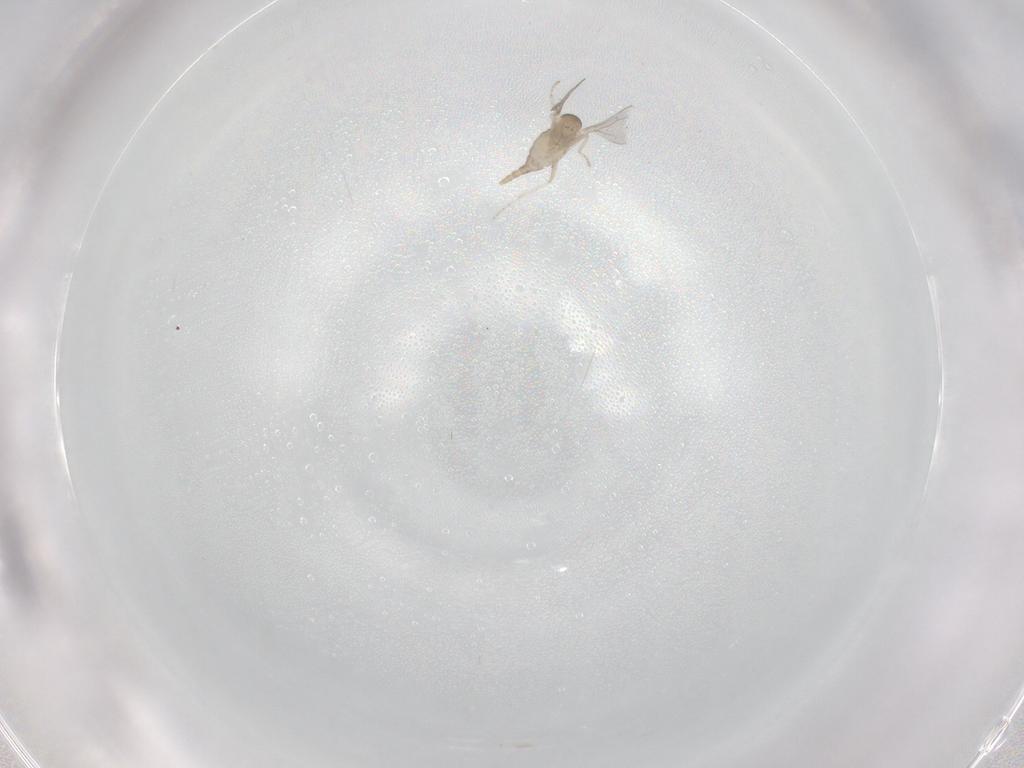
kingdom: Animalia
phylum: Arthropoda
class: Insecta
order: Diptera
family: Cecidomyiidae
